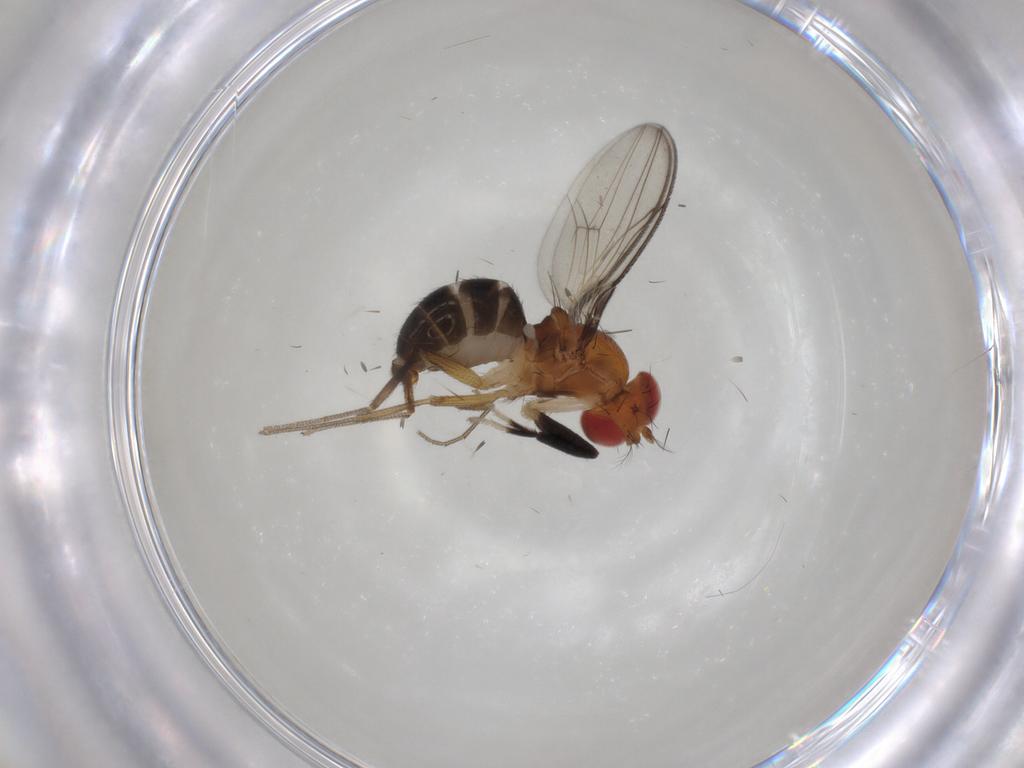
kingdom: Animalia
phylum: Arthropoda
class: Insecta
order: Diptera
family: Drosophilidae
